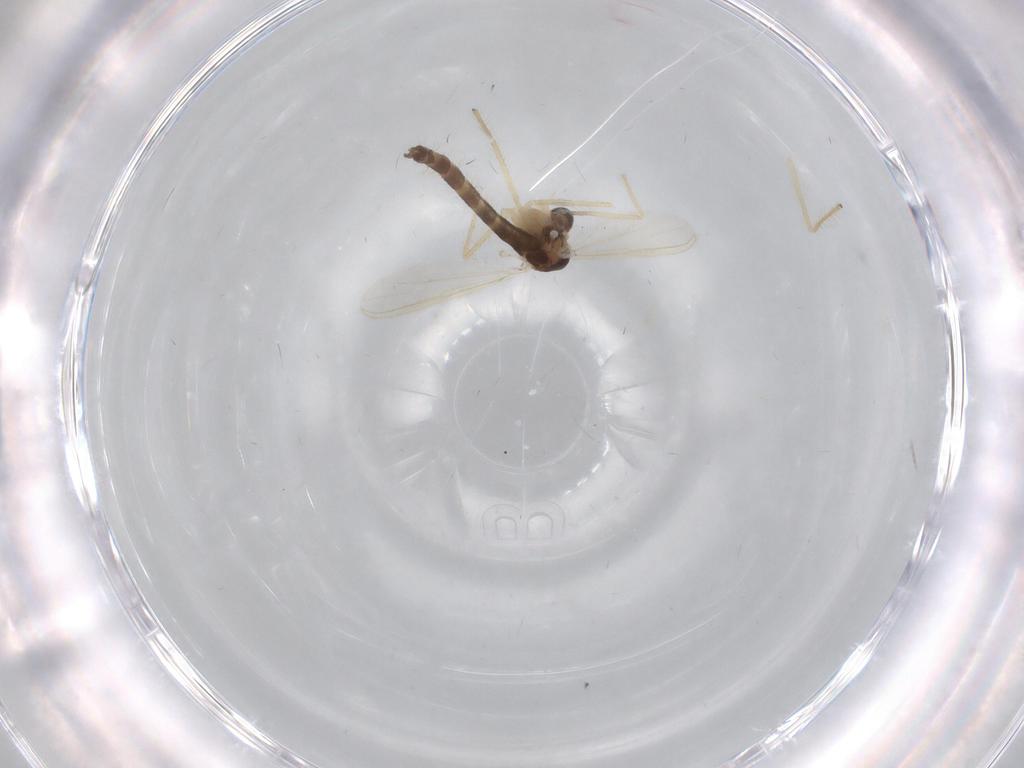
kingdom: Animalia
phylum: Arthropoda
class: Insecta
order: Diptera
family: Chironomidae
